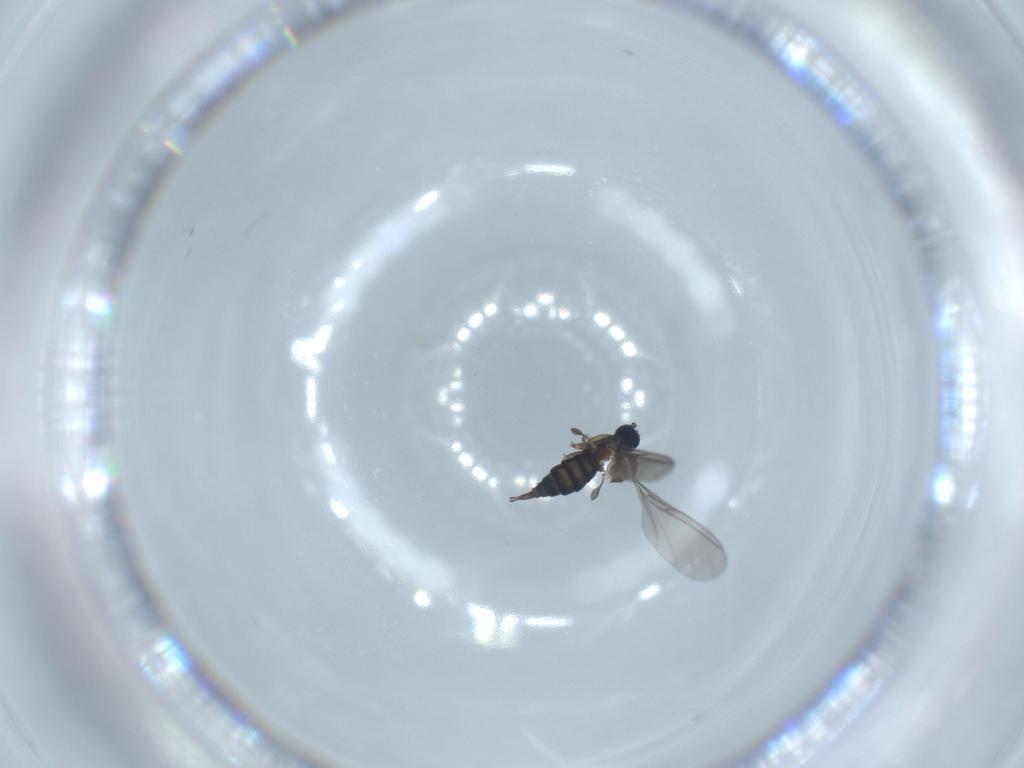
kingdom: Animalia
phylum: Arthropoda
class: Insecta
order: Diptera
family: Sciaridae
